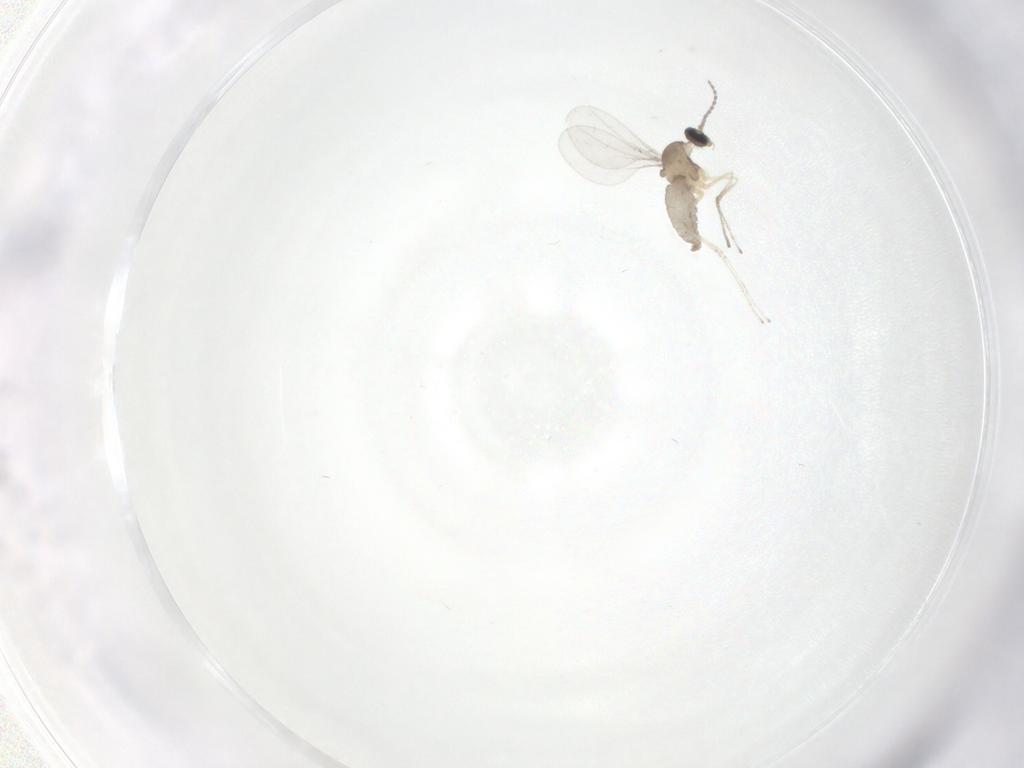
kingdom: Animalia
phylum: Arthropoda
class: Insecta
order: Diptera
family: Cecidomyiidae
